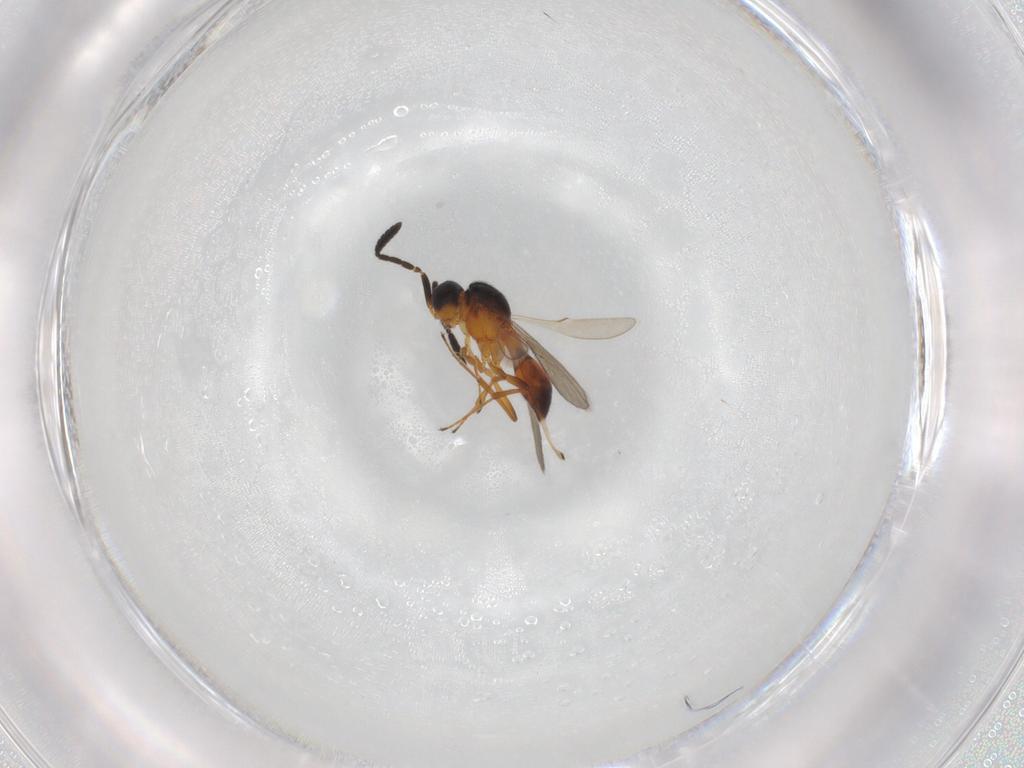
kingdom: Animalia
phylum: Arthropoda
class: Insecta
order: Hymenoptera
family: Scelionidae
